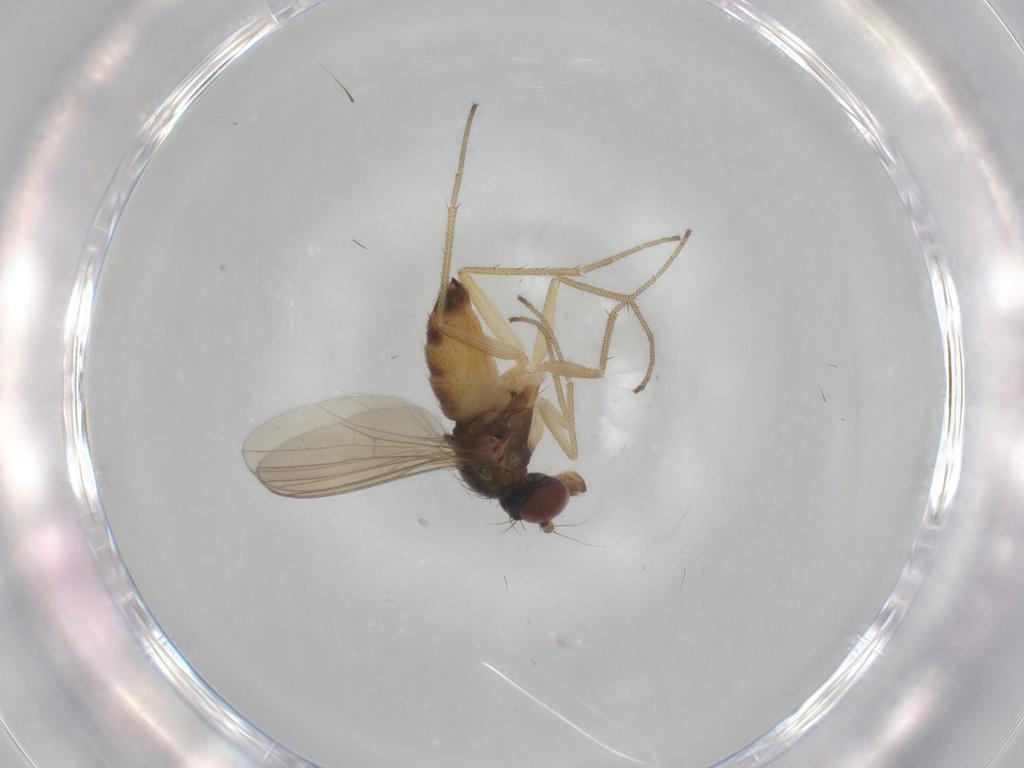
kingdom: Animalia
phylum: Arthropoda
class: Insecta
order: Diptera
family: Dolichopodidae
